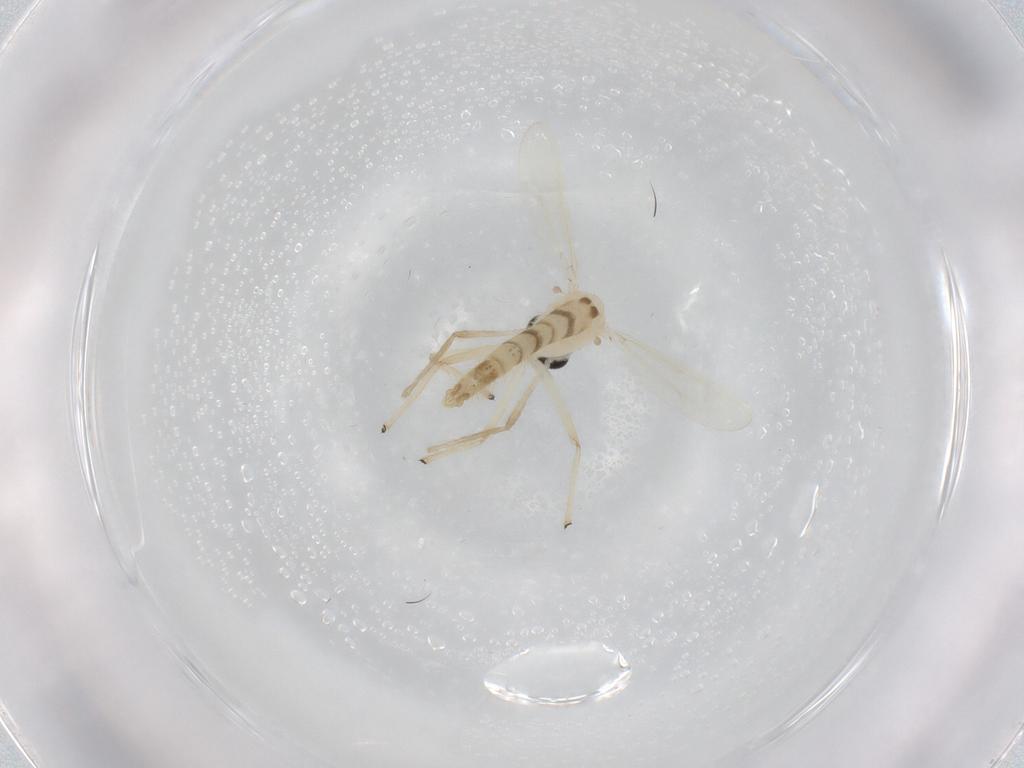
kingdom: Animalia
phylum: Arthropoda
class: Insecta
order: Diptera
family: Chironomidae
